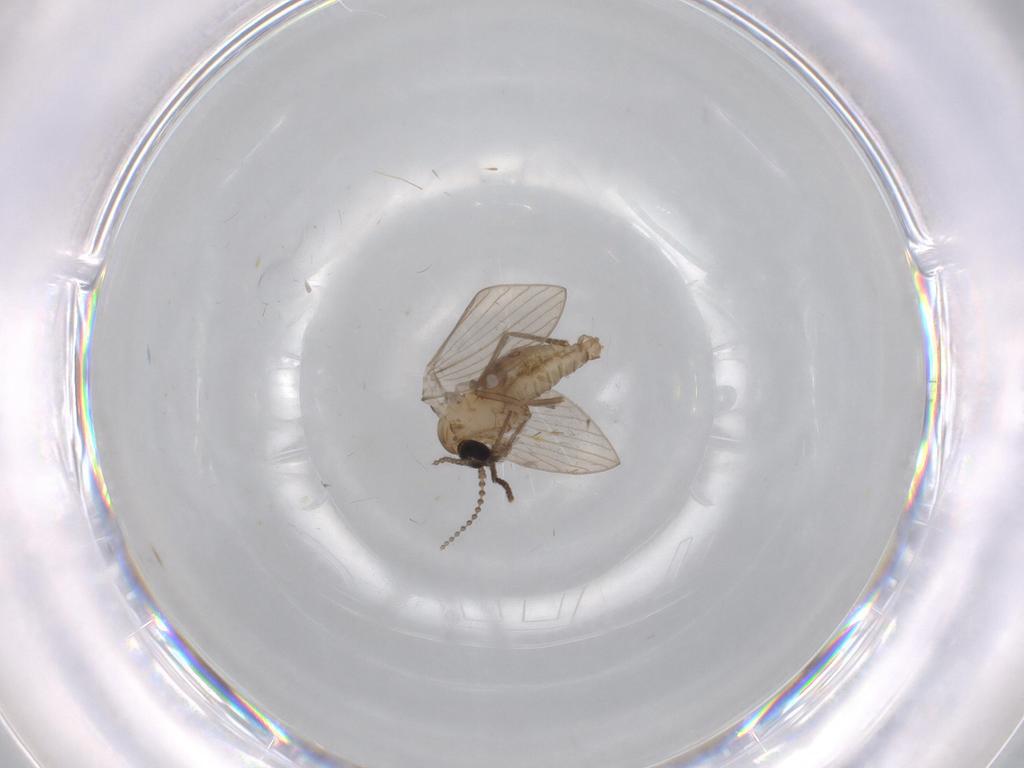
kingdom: Animalia
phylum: Arthropoda
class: Insecta
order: Diptera
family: Psychodidae
